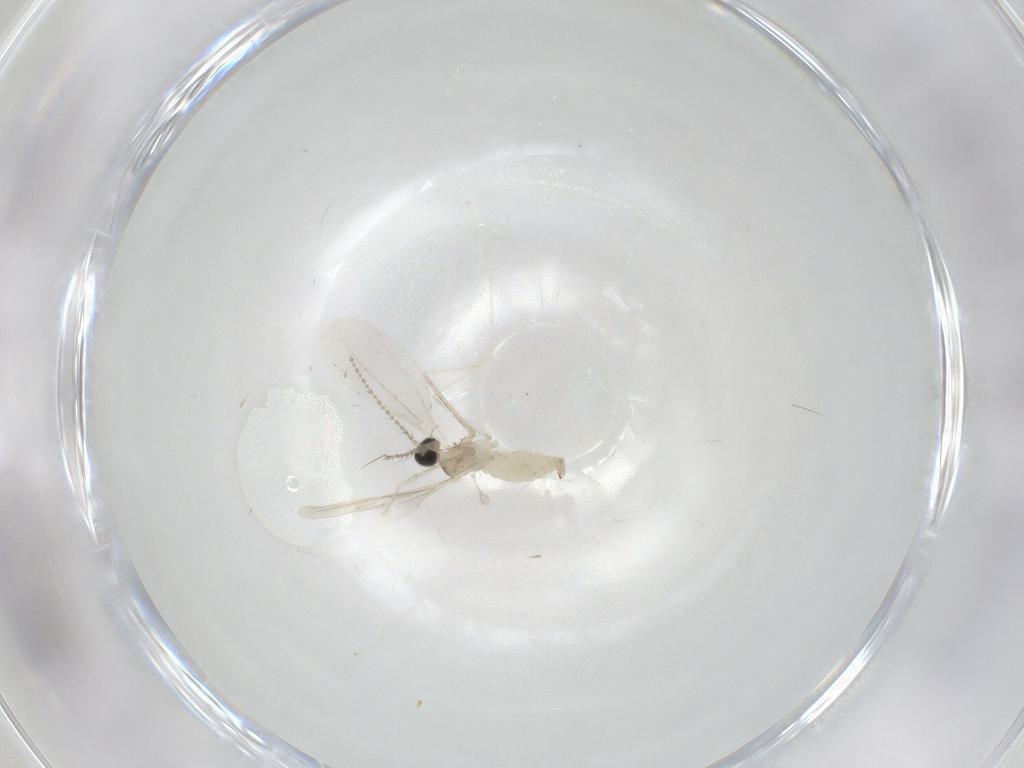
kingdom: Animalia
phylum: Arthropoda
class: Insecta
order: Diptera
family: Cecidomyiidae
